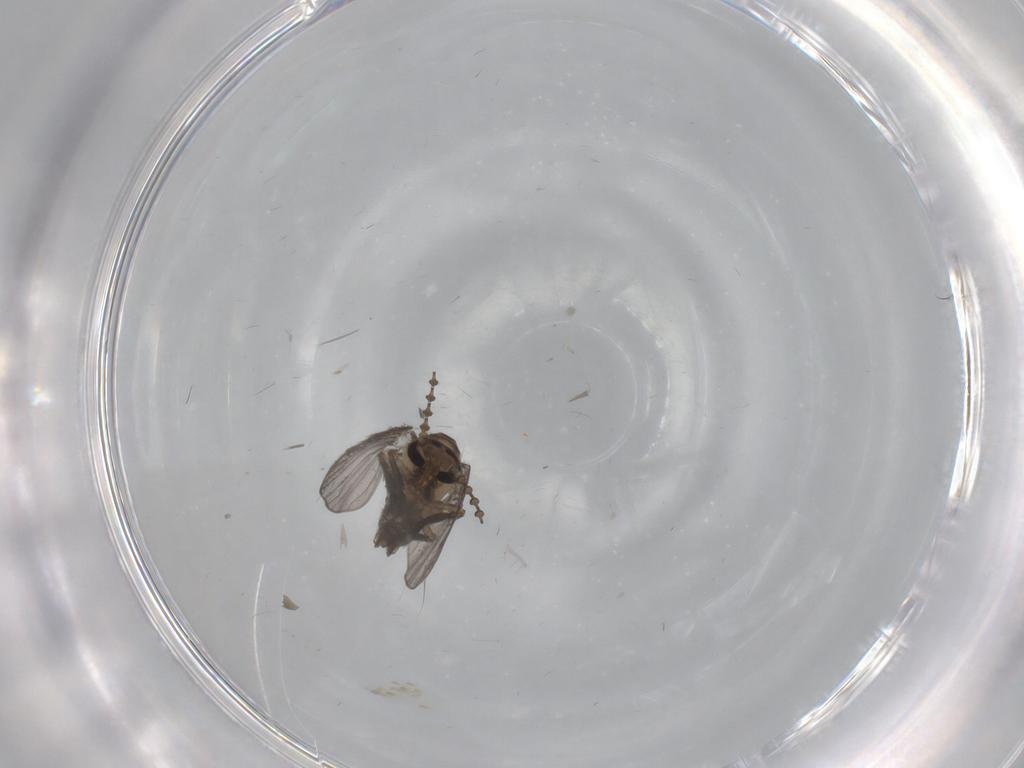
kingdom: Animalia
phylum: Arthropoda
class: Insecta
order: Diptera
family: Psychodidae
